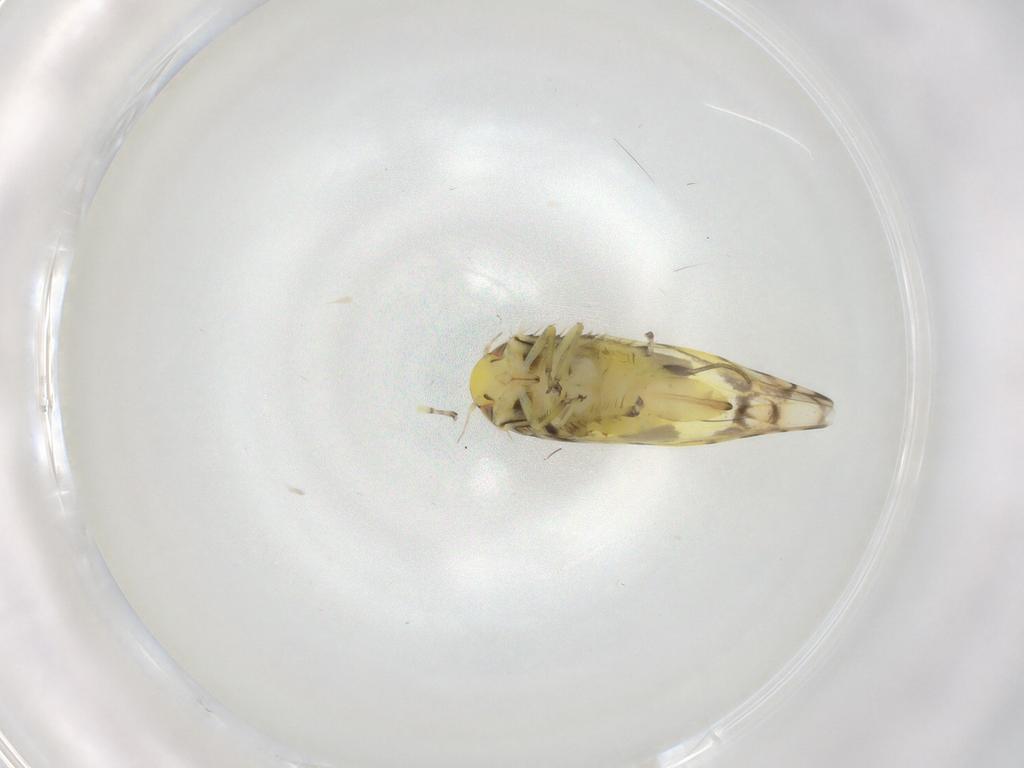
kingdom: Animalia
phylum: Arthropoda
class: Insecta
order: Hemiptera
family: Cicadellidae
